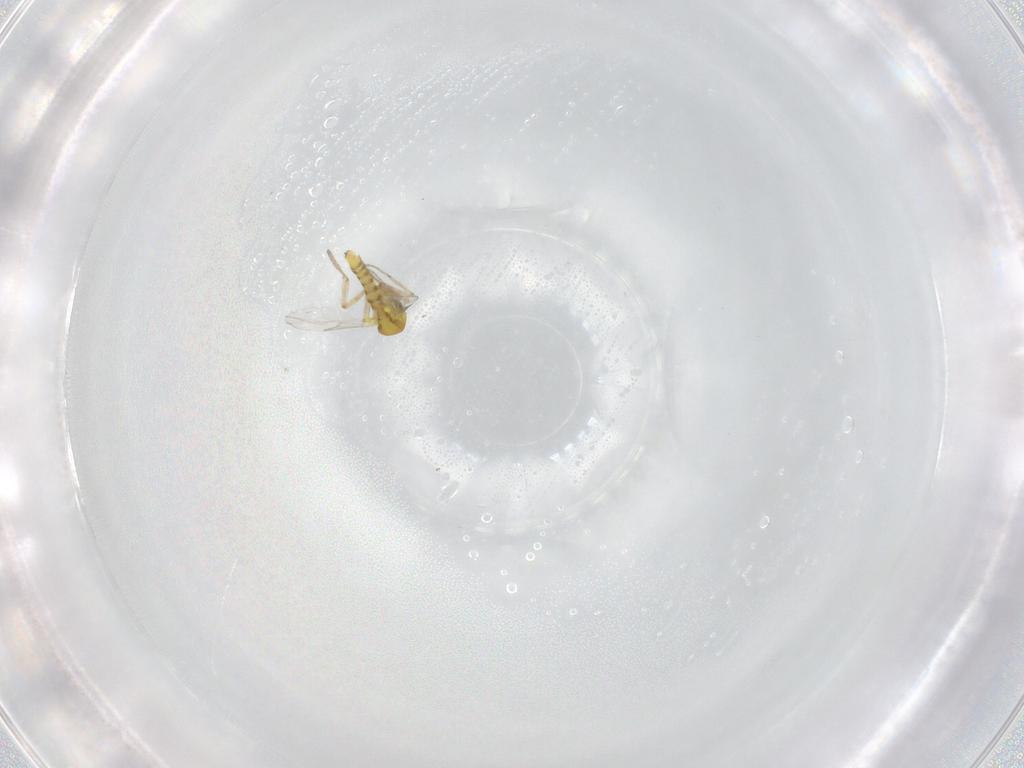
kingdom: Animalia
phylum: Arthropoda
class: Insecta
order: Diptera
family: Ceratopogonidae
